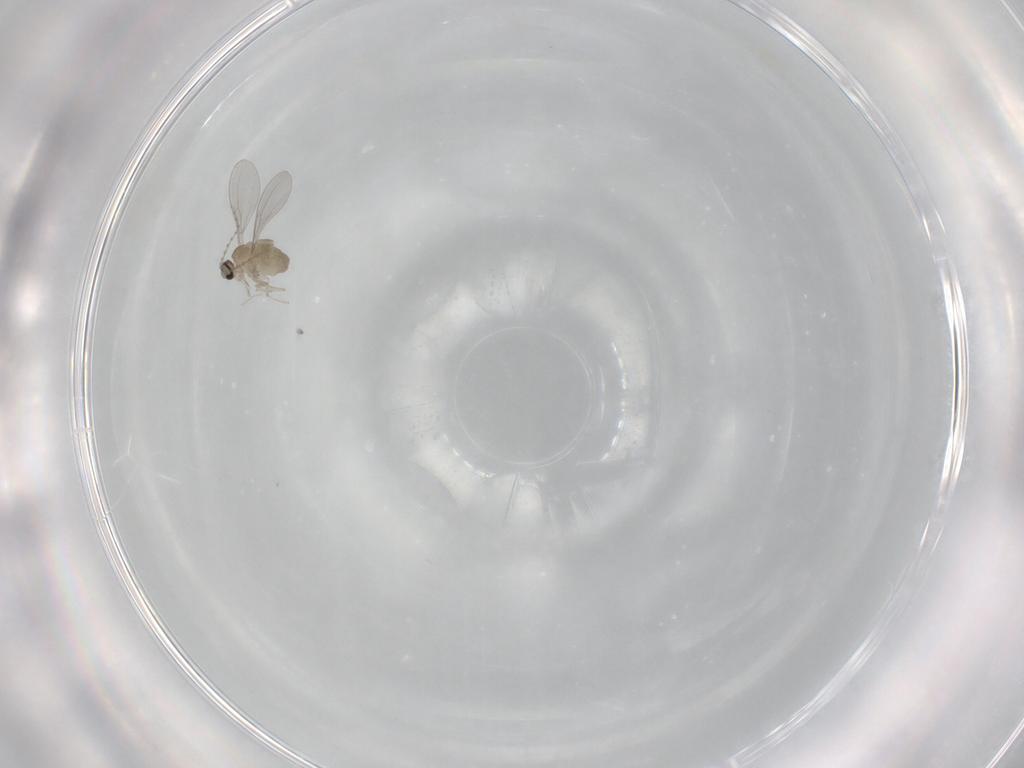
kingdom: Animalia
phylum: Arthropoda
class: Insecta
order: Diptera
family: Cecidomyiidae
